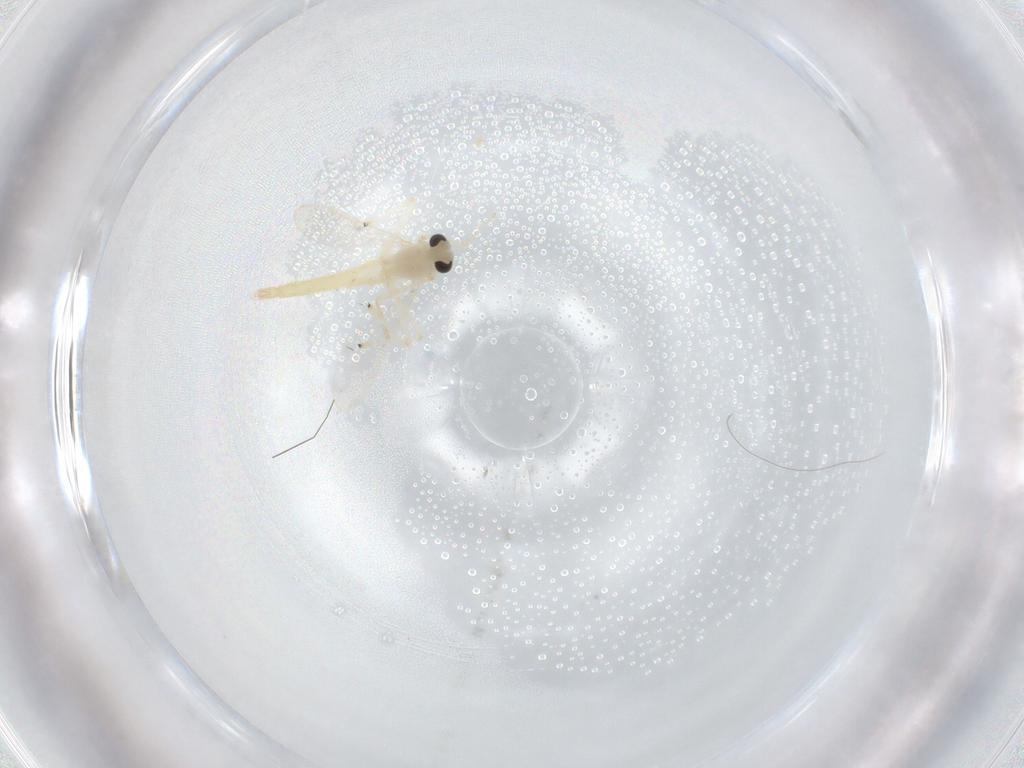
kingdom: Animalia
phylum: Arthropoda
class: Insecta
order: Diptera
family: Chironomidae
